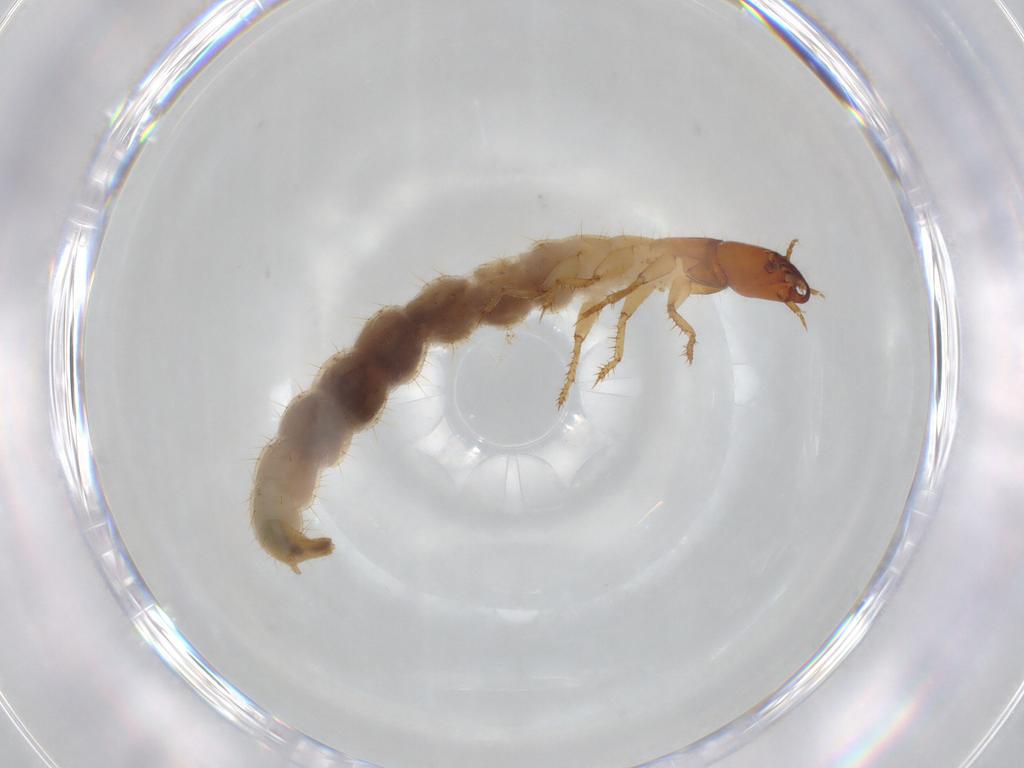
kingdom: Animalia
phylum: Arthropoda
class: Insecta
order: Coleoptera
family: Staphylinidae
